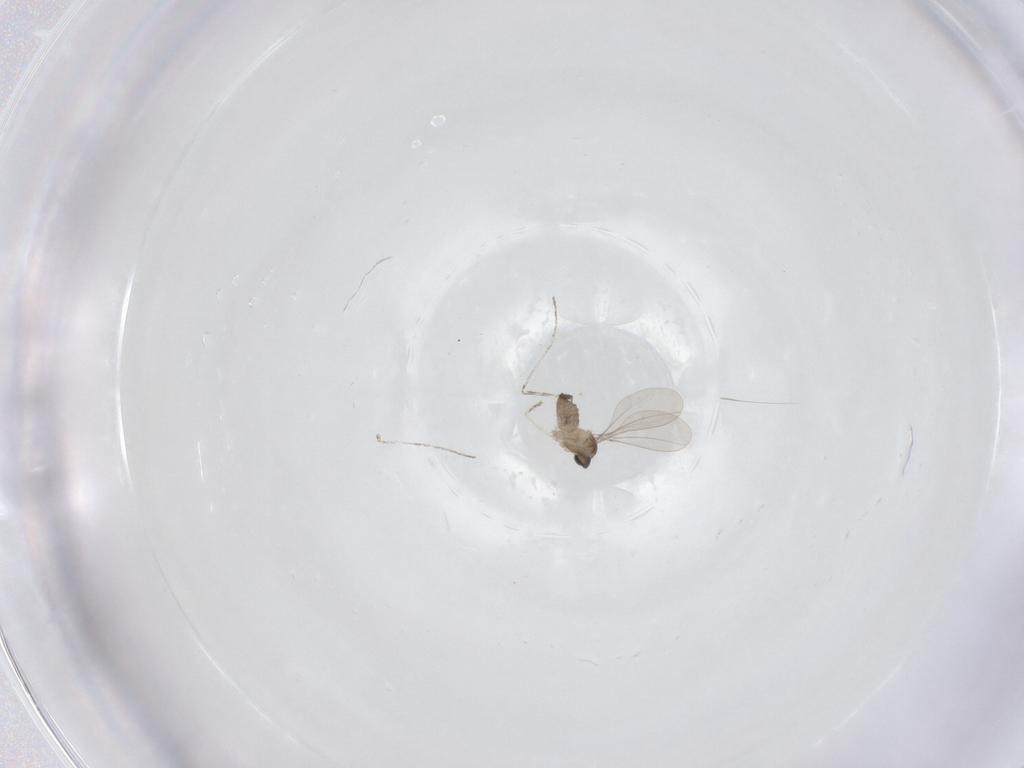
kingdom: Animalia
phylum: Arthropoda
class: Insecta
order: Diptera
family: Cecidomyiidae
